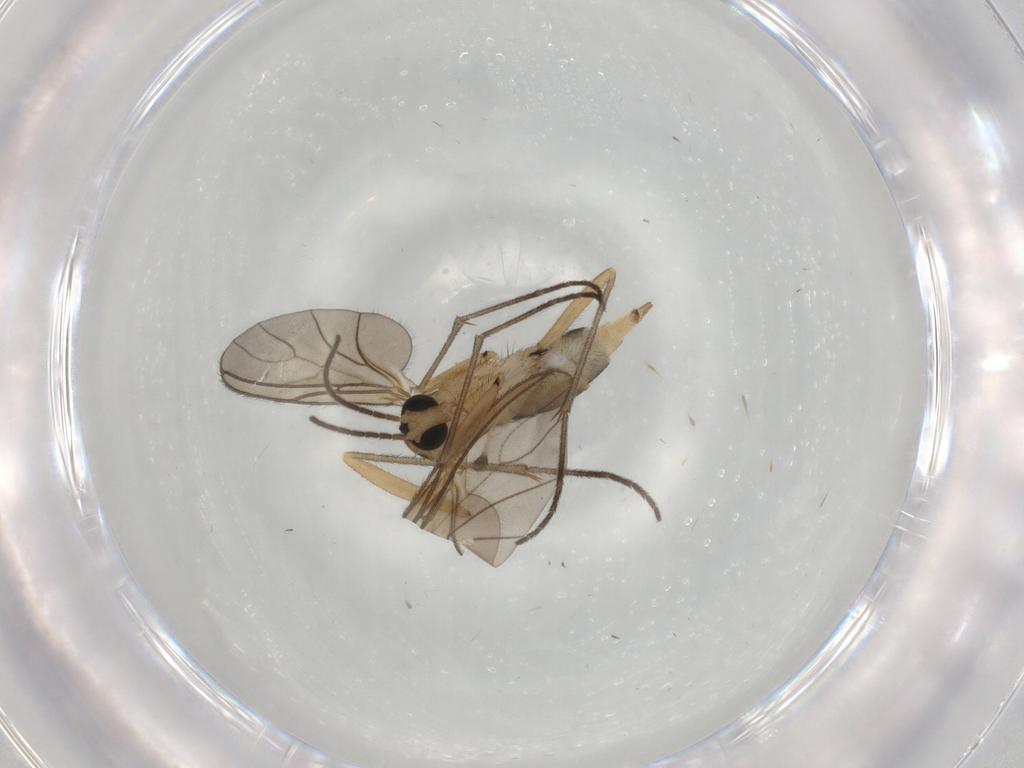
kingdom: Animalia
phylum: Arthropoda
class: Insecta
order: Diptera
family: Sciaridae
